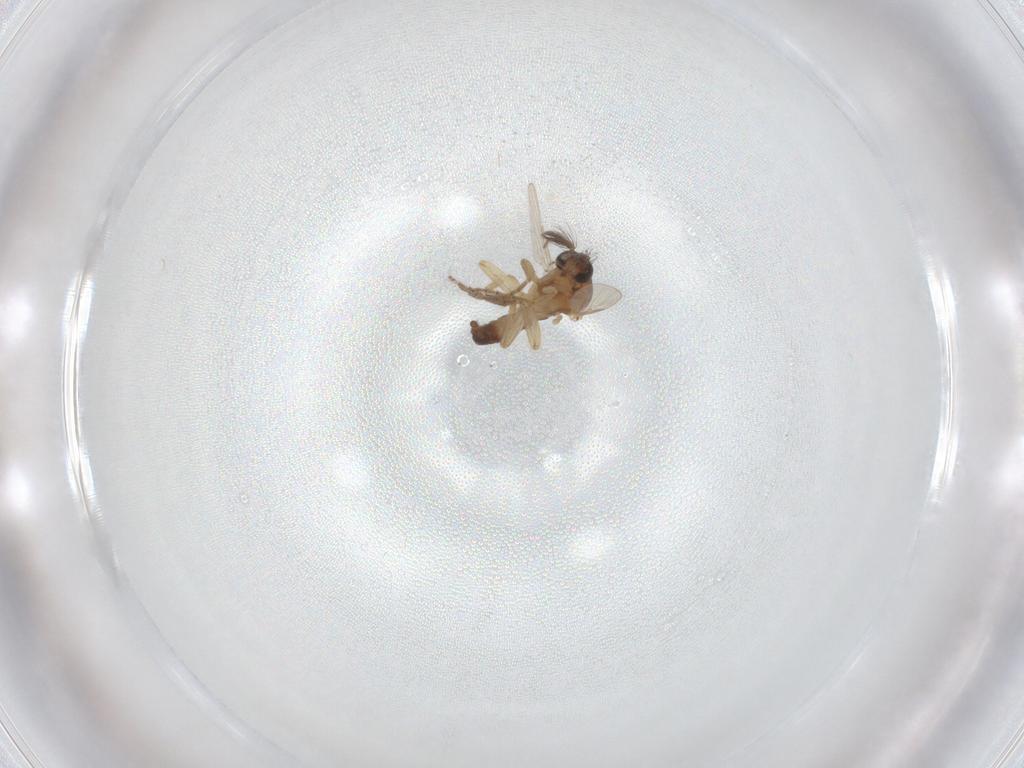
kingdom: Animalia
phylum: Arthropoda
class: Insecta
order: Diptera
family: Ceratopogonidae
